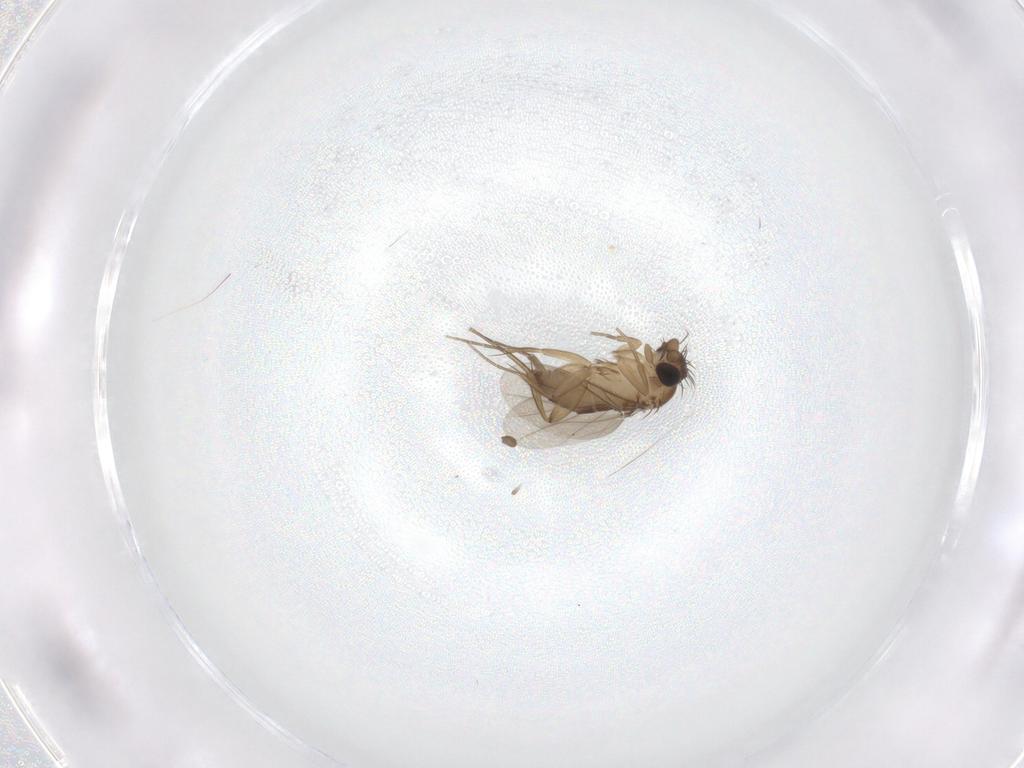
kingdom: Animalia
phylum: Arthropoda
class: Insecta
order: Diptera
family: Phoridae
